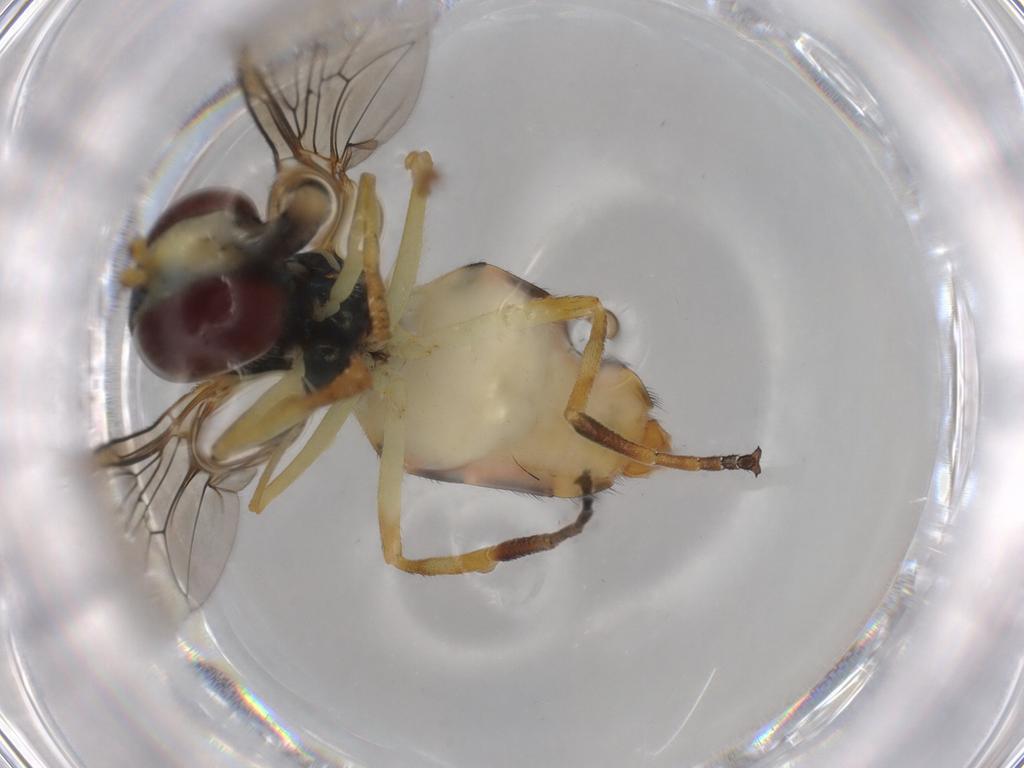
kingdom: Animalia
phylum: Arthropoda
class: Insecta
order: Diptera
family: Syrphidae
